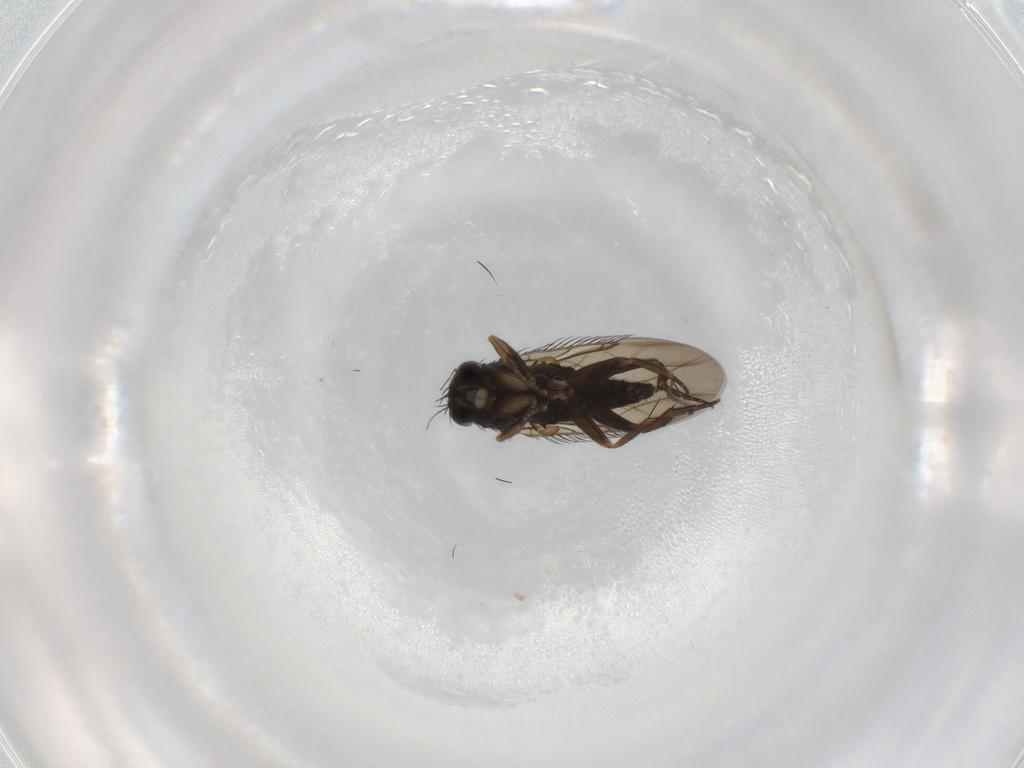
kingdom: Animalia
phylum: Arthropoda
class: Insecta
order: Diptera
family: Phoridae
